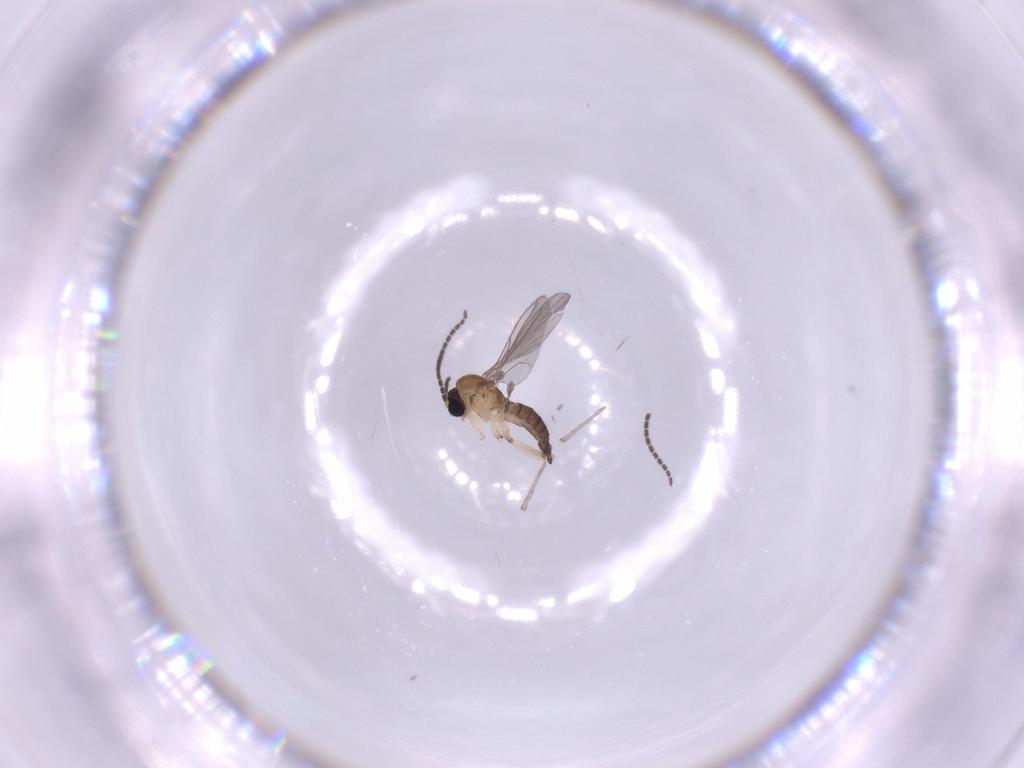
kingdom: Animalia
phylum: Arthropoda
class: Insecta
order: Diptera
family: Sciaridae
